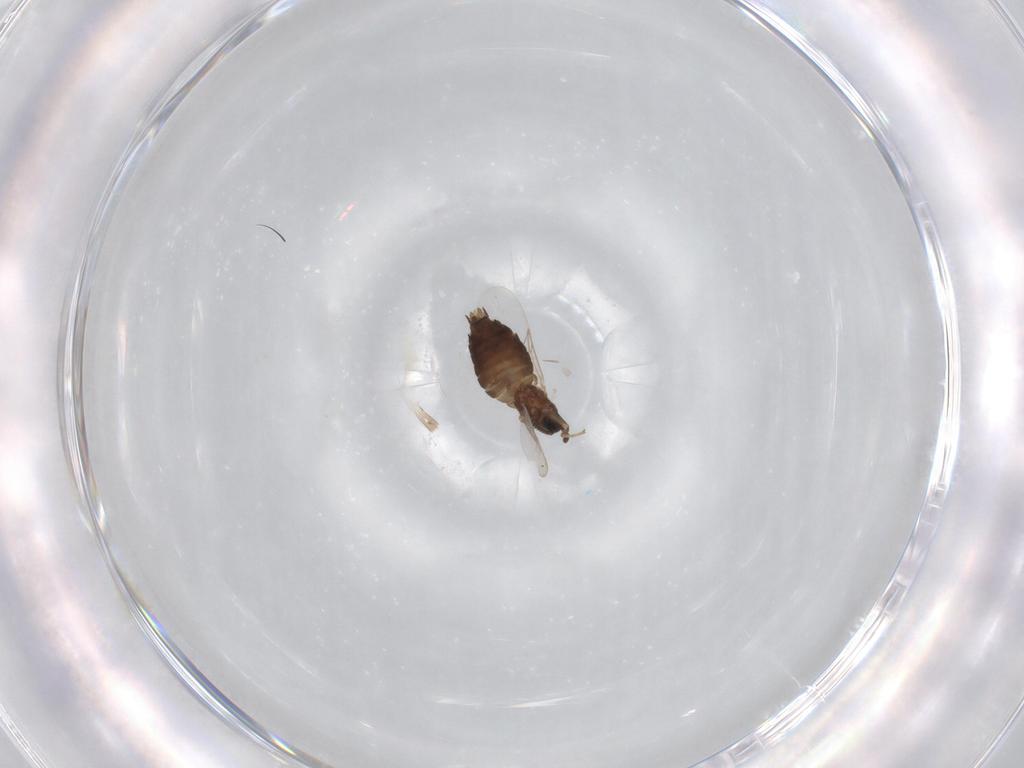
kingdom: Animalia
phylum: Arthropoda
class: Insecta
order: Diptera
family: Scatopsidae
